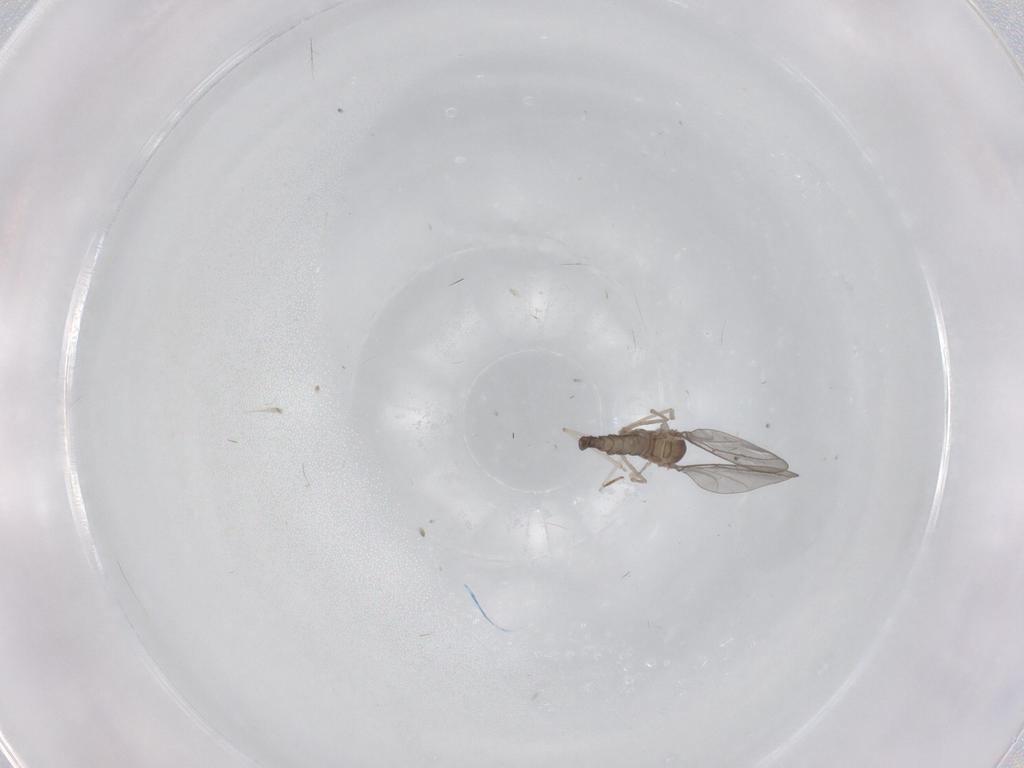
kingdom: Animalia
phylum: Arthropoda
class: Insecta
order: Diptera
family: Cecidomyiidae
